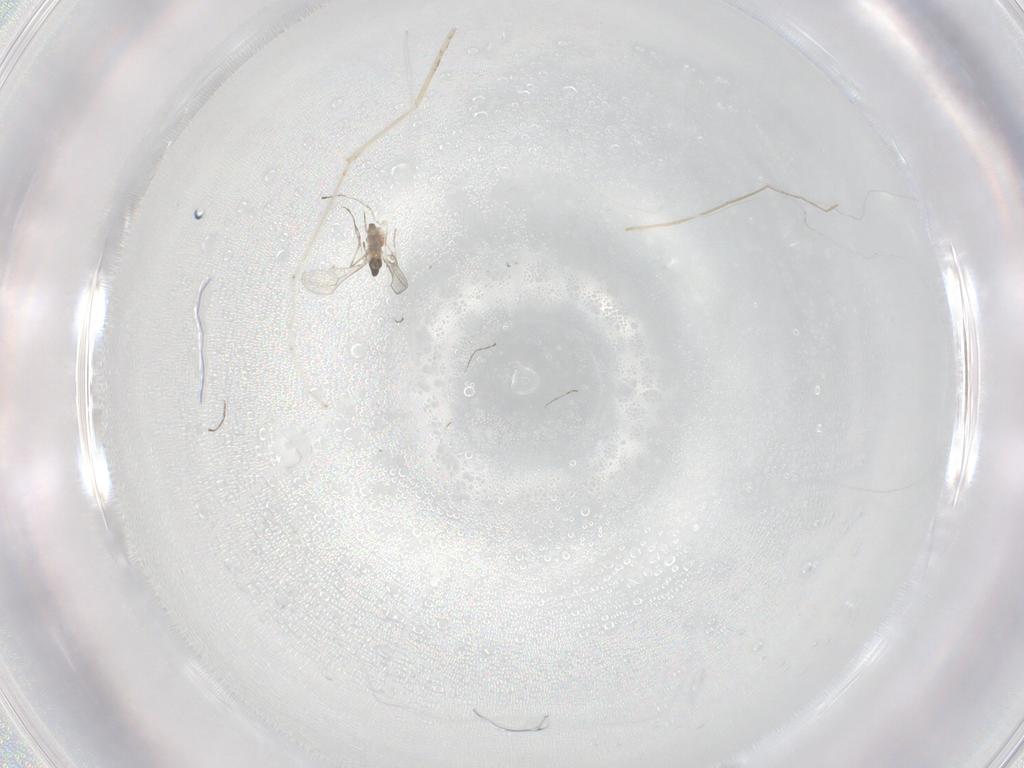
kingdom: Animalia
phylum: Arthropoda
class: Insecta
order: Diptera
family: Cecidomyiidae
